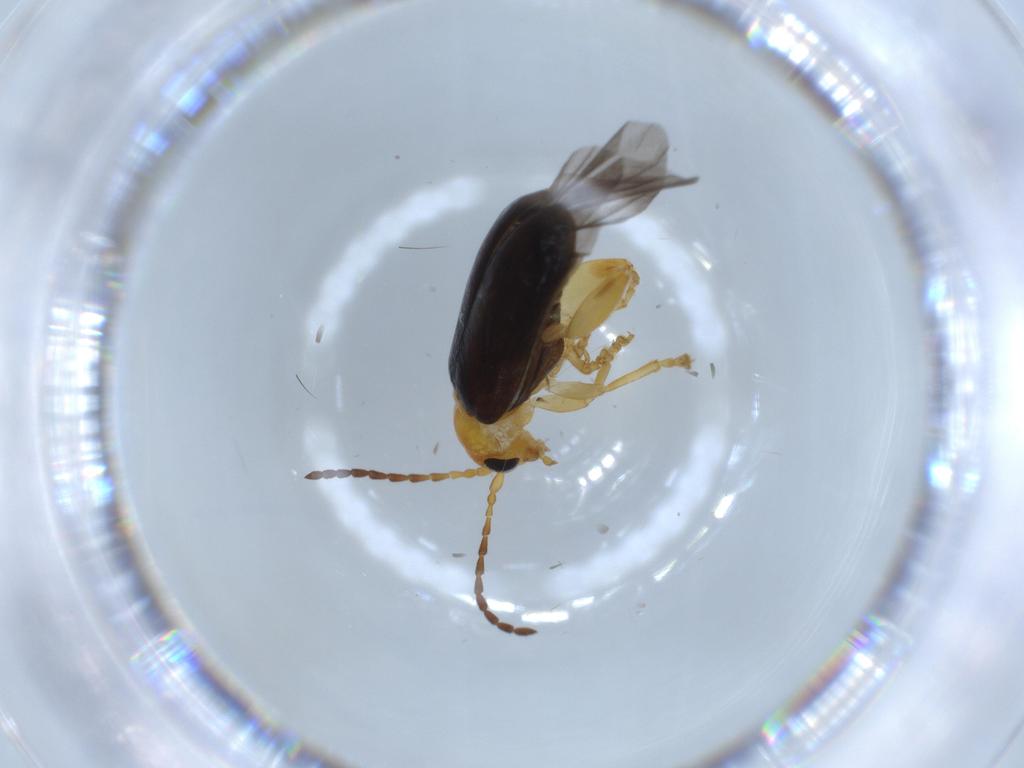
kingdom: Animalia
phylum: Arthropoda
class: Insecta
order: Coleoptera
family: Chrysomelidae
